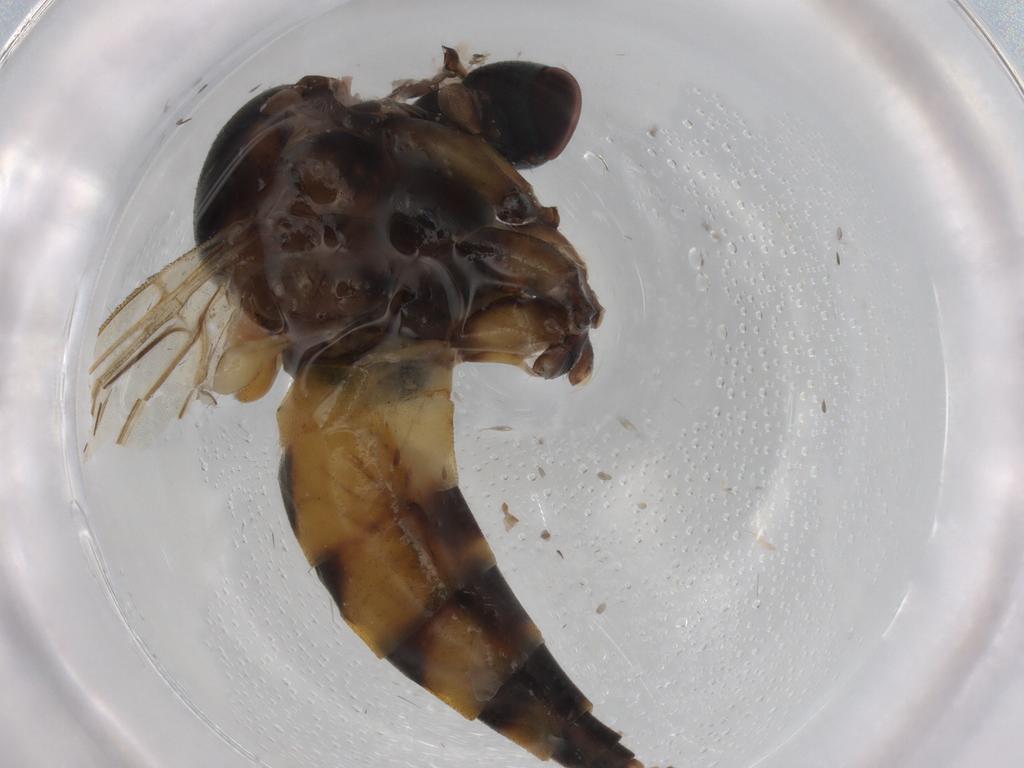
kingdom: Animalia
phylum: Arthropoda
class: Insecta
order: Diptera
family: Rhagionidae
